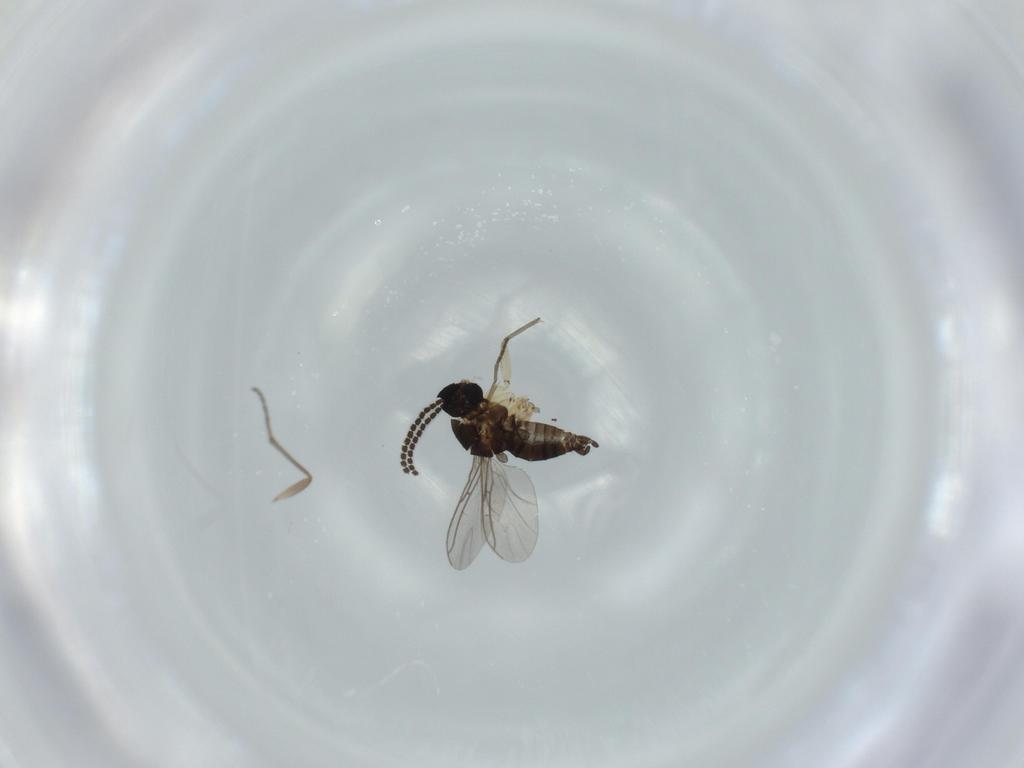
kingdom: Animalia
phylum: Arthropoda
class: Insecta
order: Diptera
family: Sciaridae
